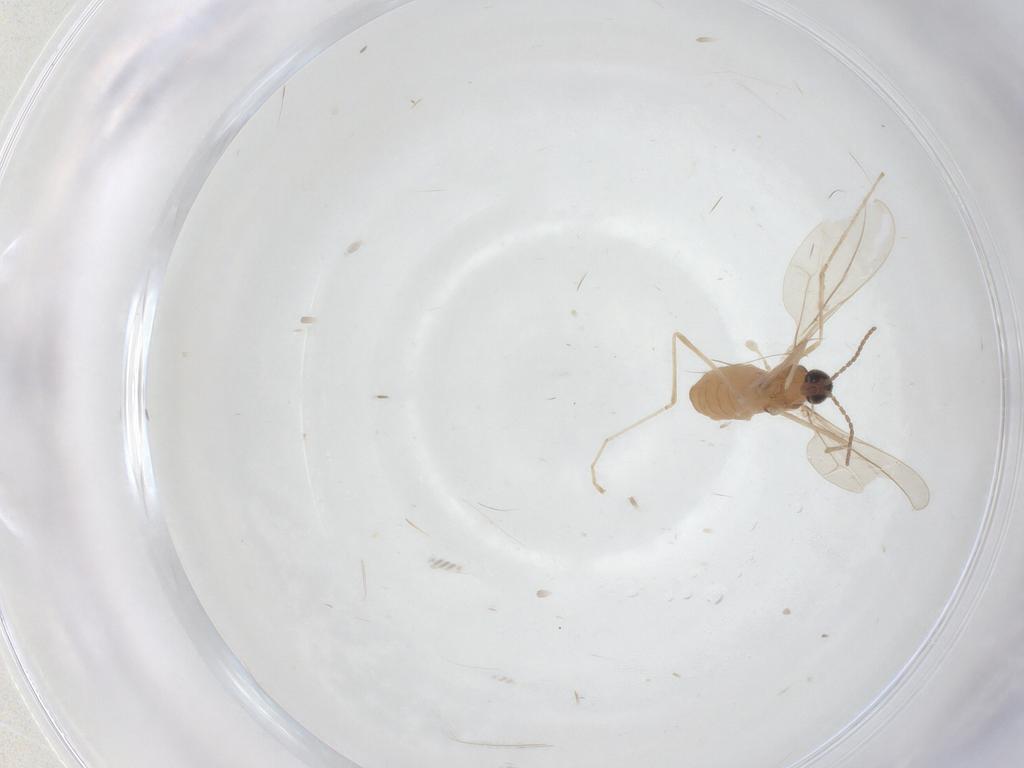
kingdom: Animalia
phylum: Arthropoda
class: Insecta
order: Diptera
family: Cecidomyiidae
